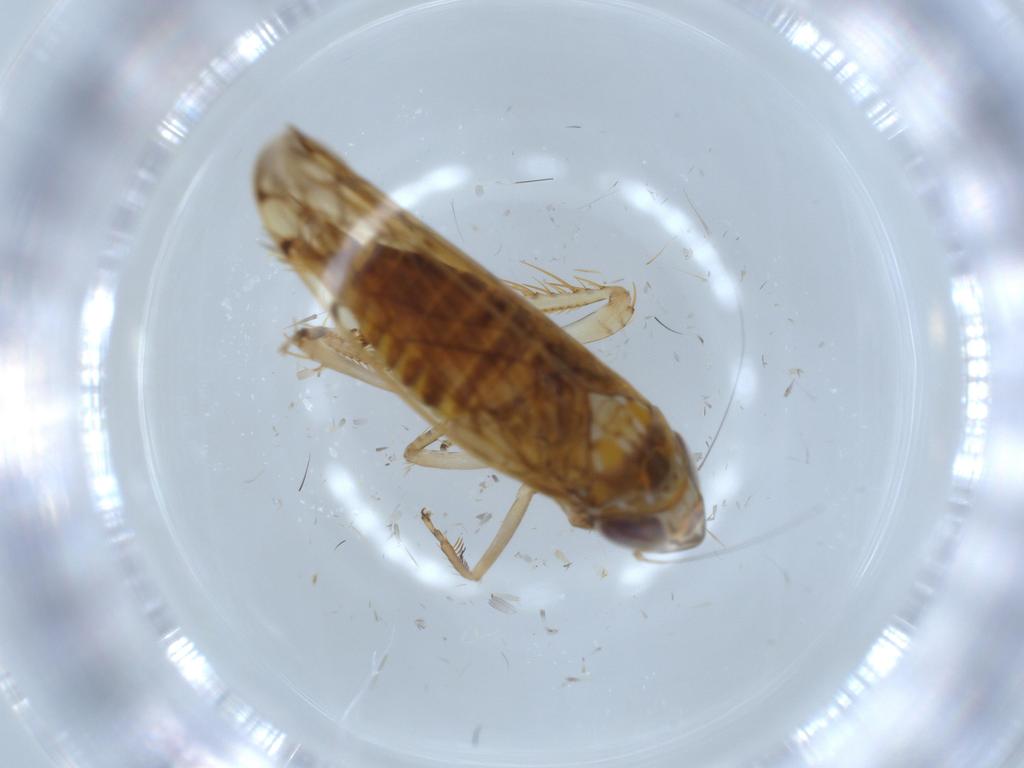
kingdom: Animalia
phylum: Arthropoda
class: Insecta
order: Hemiptera
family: Cicadellidae
